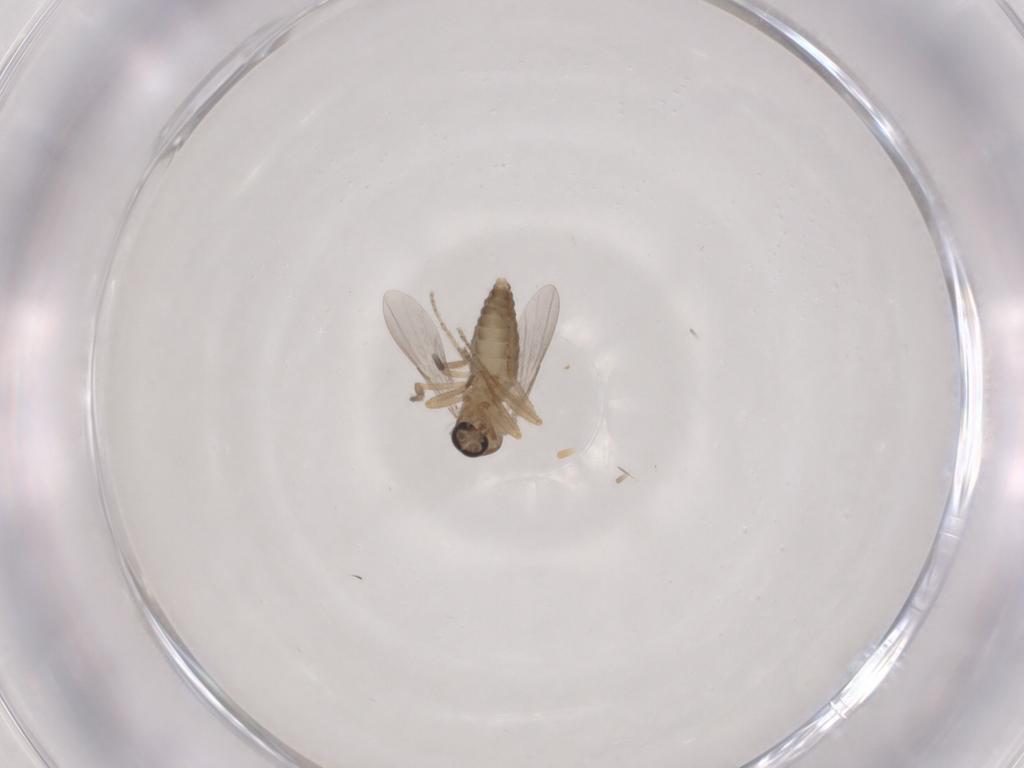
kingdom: Animalia
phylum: Arthropoda
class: Insecta
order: Diptera
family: Ceratopogonidae
